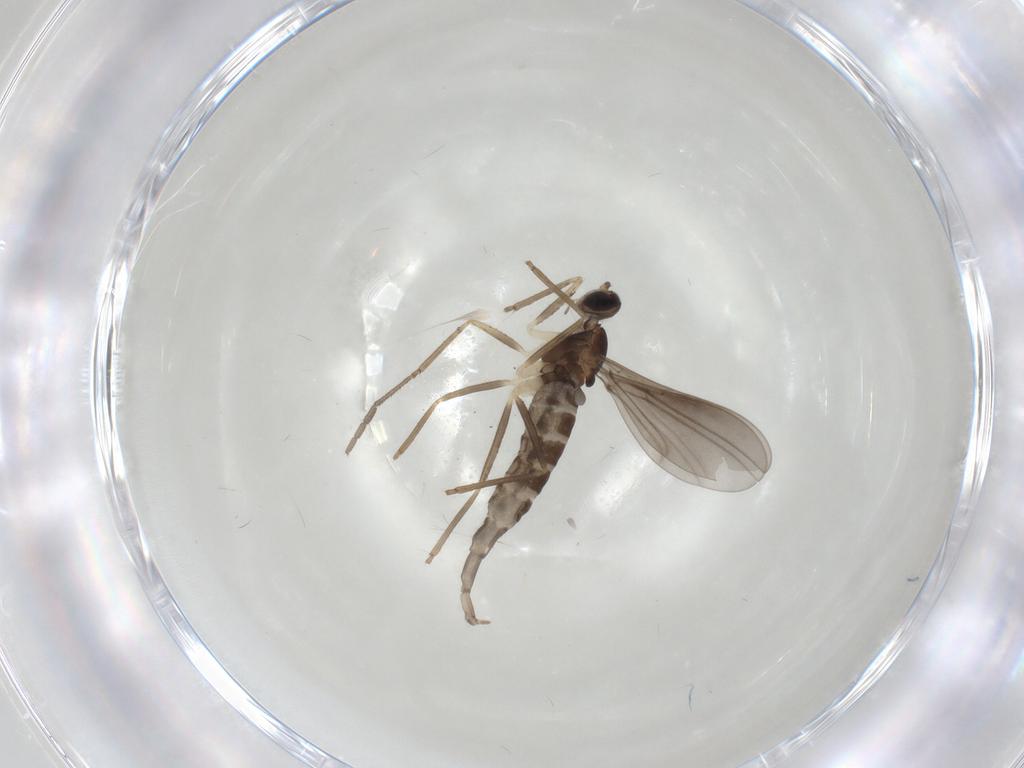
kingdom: Animalia
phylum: Arthropoda
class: Insecta
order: Diptera
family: Cecidomyiidae
